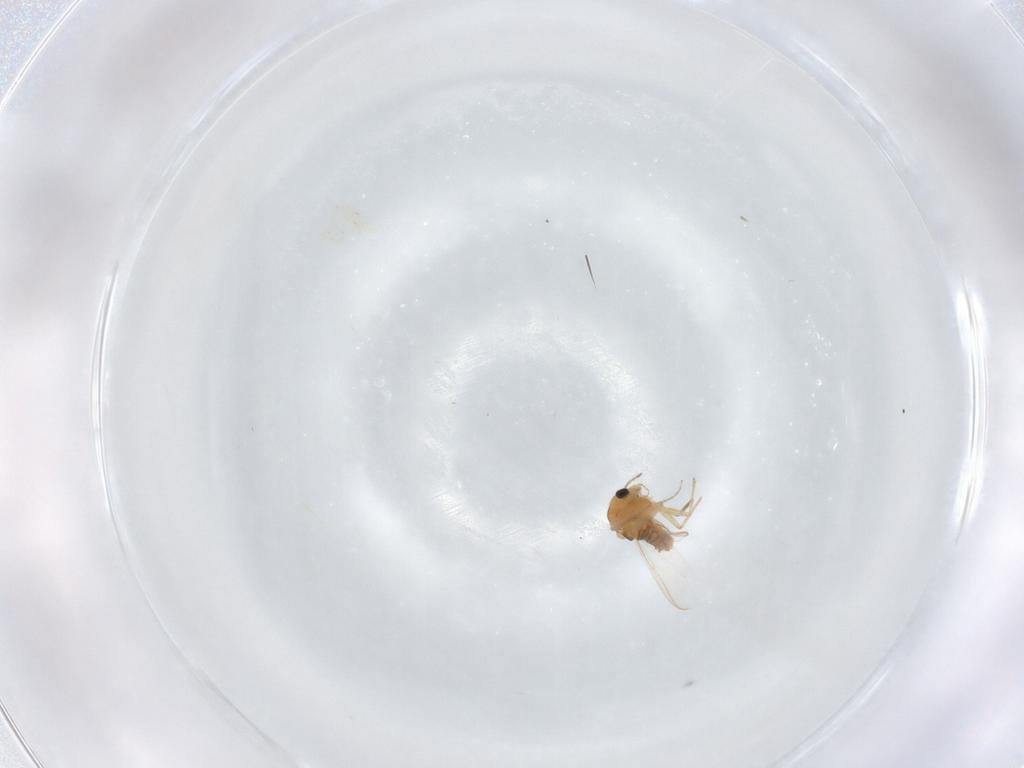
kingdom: Animalia
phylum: Arthropoda
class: Insecta
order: Diptera
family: Chironomidae
